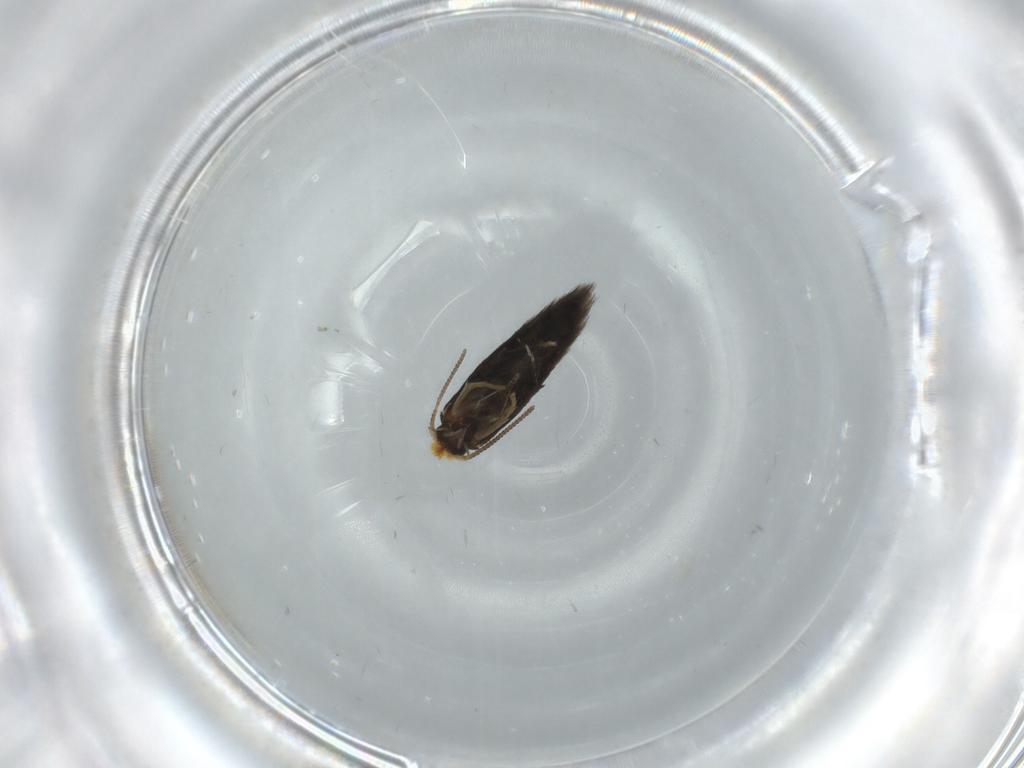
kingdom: Animalia
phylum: Arthropoda
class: Insecta
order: Lepidoptera
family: Nepticulidae
